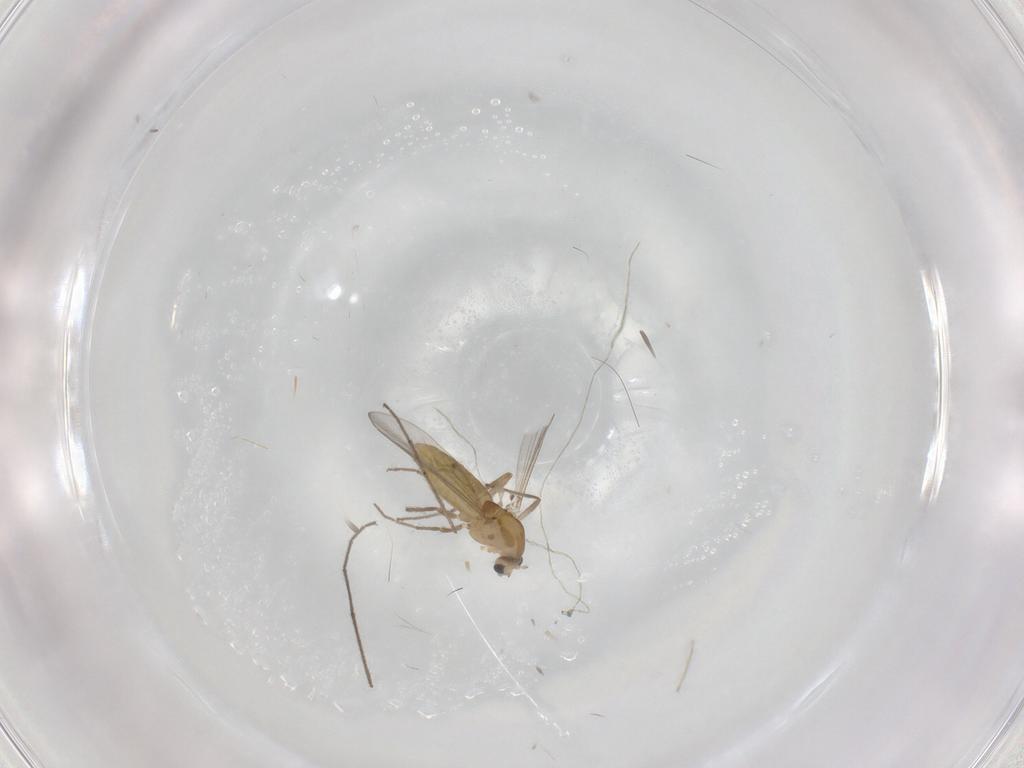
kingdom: Animalia
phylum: Arthropoda
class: Insecta
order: Diptera
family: Chironomidae
